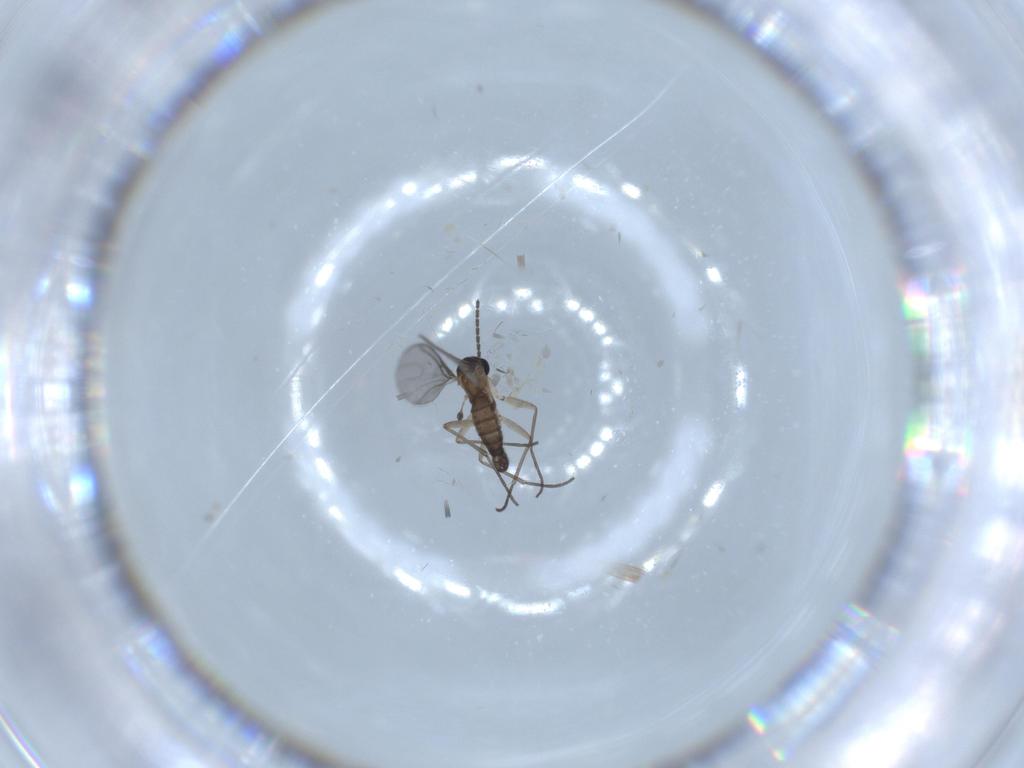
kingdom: Animalia
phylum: Arthropoda
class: Insecta
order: Diptera
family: Sciaridae
